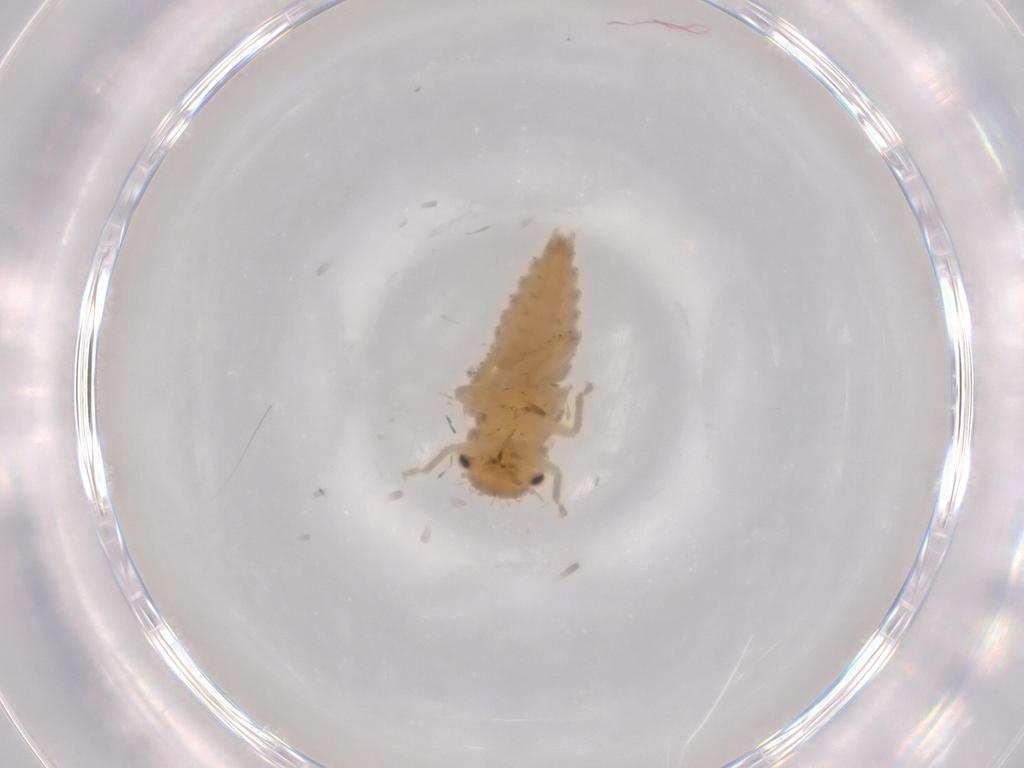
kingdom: Animalia
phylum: Arthropoda
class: Insecta
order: Hemiptera
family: Cicadellidae
